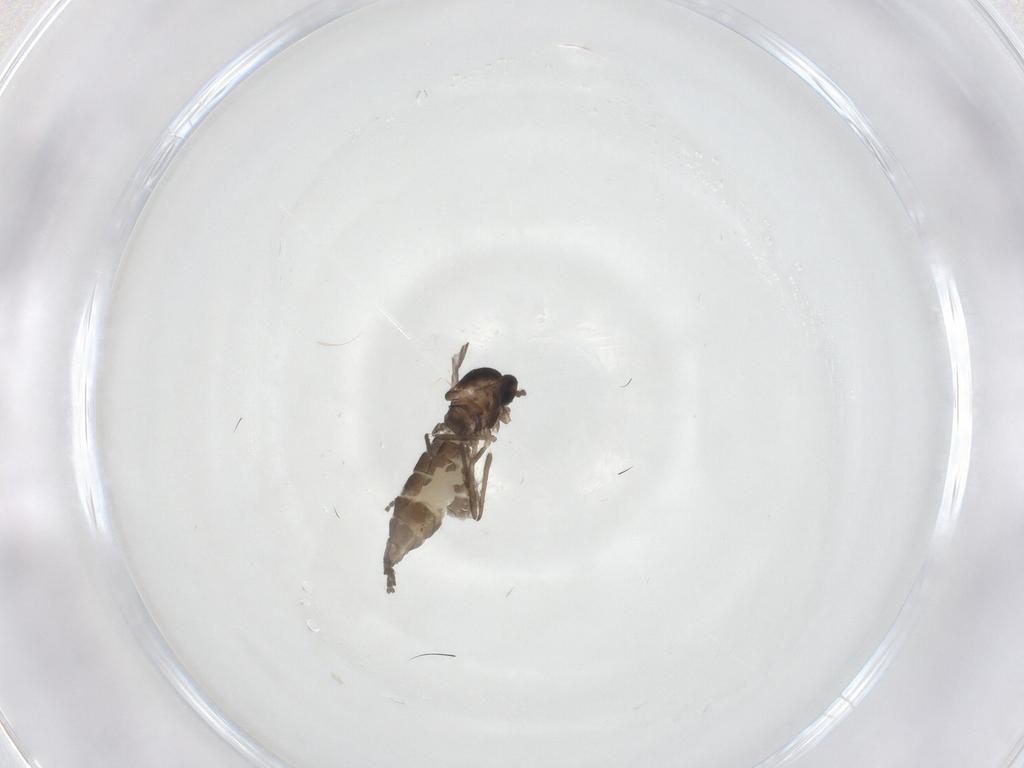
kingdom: Animalia
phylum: Arthropoda
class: Insecta
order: Diptera
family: Cecidomyiidae
